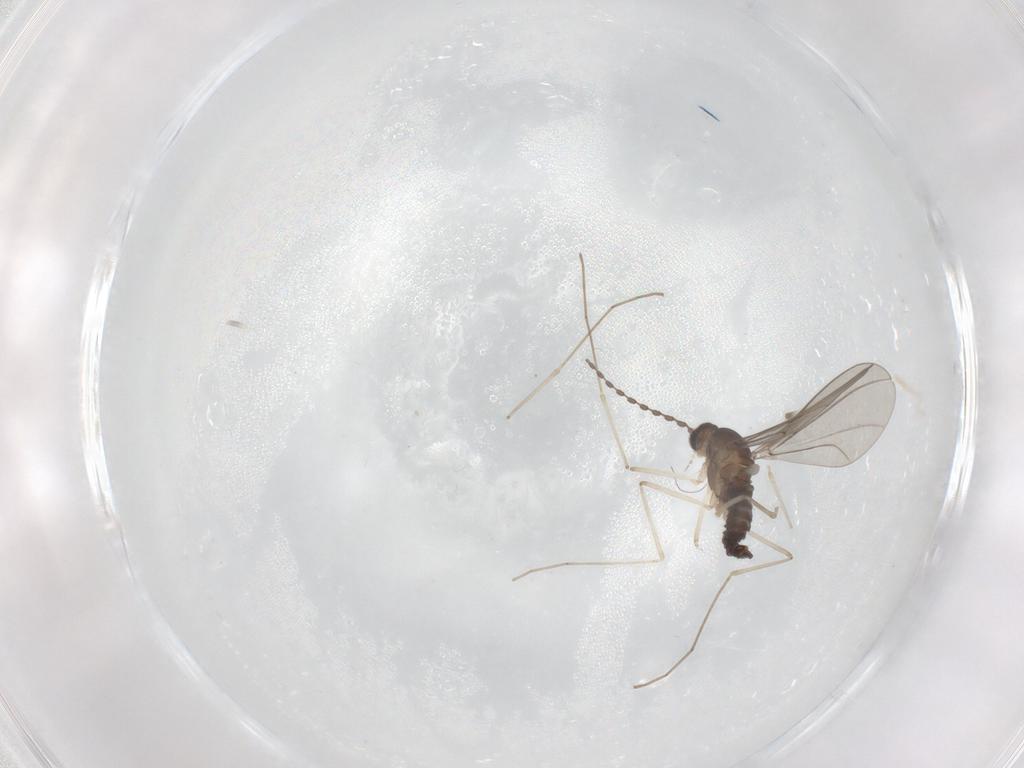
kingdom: Animalia
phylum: Arthropoda
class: Insecta
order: Diptera
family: Cecidomyiidae
